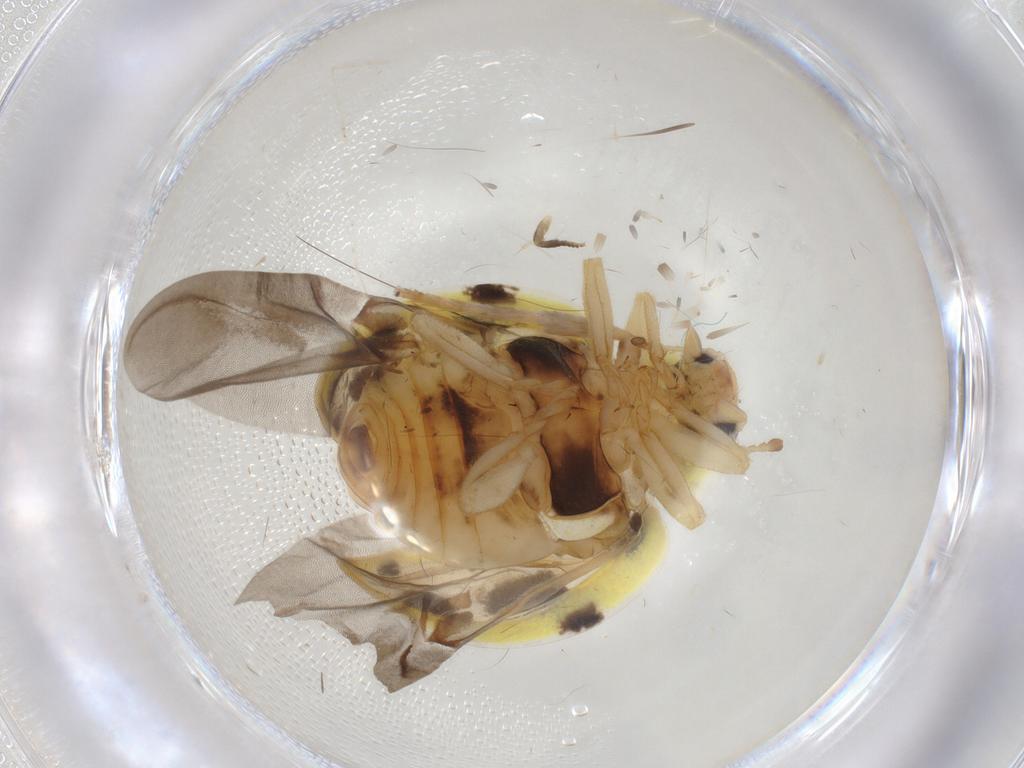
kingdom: Animalia
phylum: Arthropoda
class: Insecta
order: Coleoptera
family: Coccinellidae
